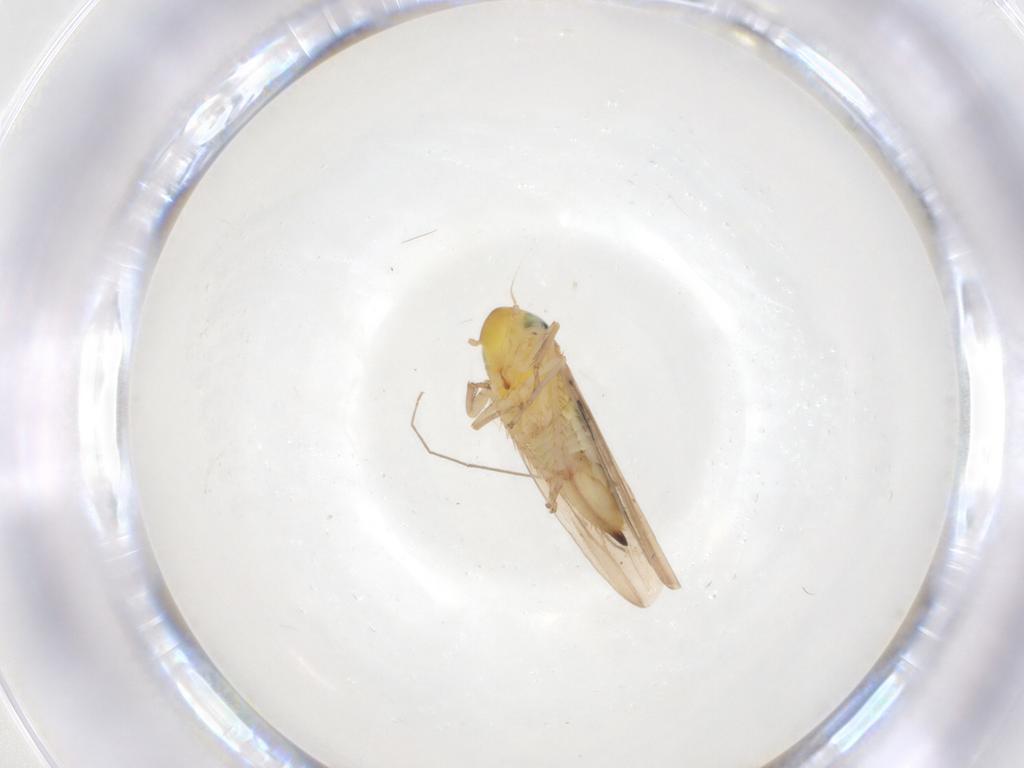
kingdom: Animalia
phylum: Arthropoda
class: Insecta
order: Hemiptera
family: Cicadellidae
